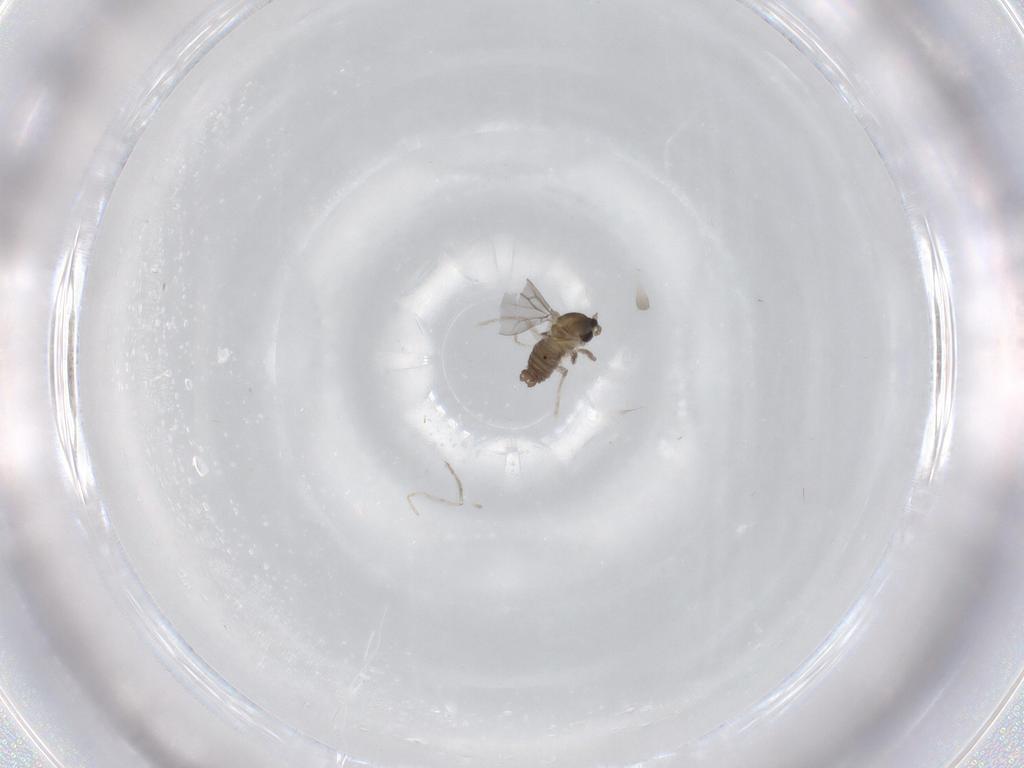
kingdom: Animalia
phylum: Arthropoda
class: Insecta
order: Diptera
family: Cecidomyiidae
